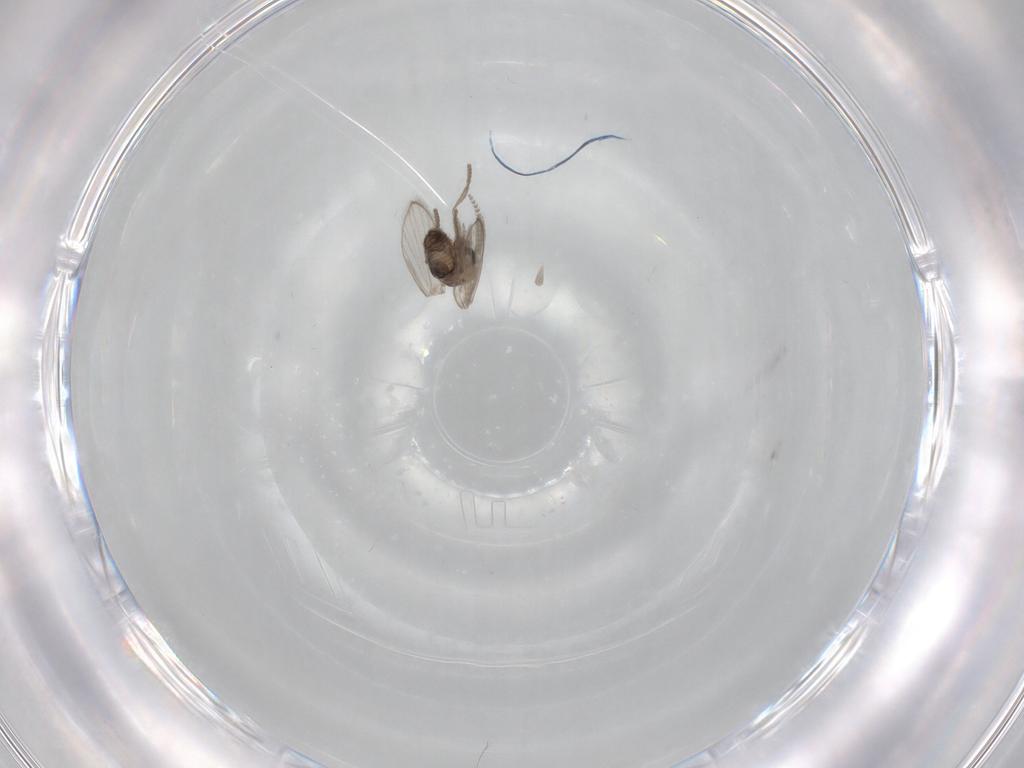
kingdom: Animalia
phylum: Arthropoda
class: Insecta
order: Diptera
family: Psychodidae
